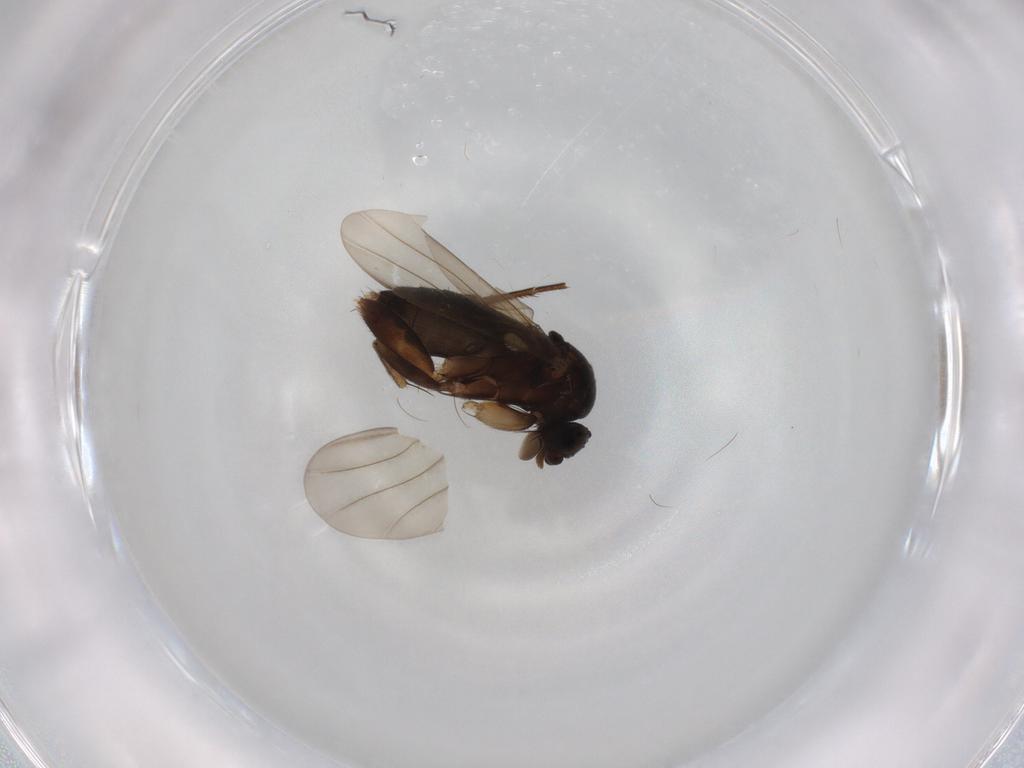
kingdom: Animalia
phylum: Arthropoda
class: Insecta
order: Diptera
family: Phoridae
